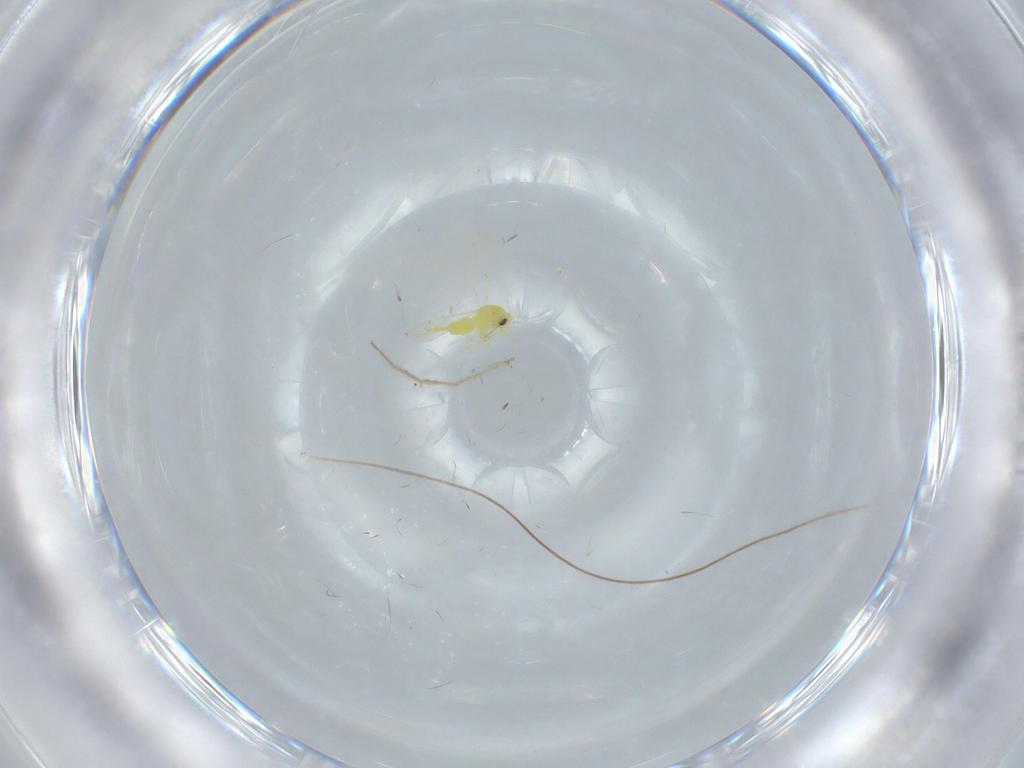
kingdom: Animalia
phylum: Arthropoda
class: Insecta
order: Hemiptera
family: Aleyrodidae
